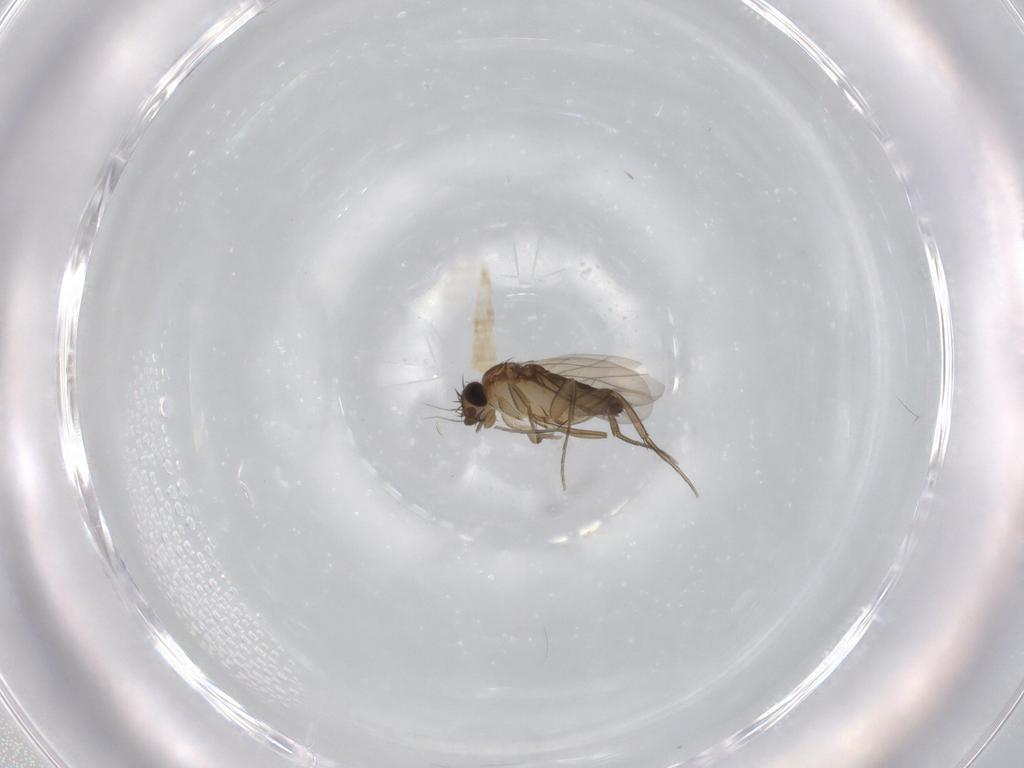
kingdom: Animalia
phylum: Arthropoda
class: Insecta
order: Diptera
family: Phoridae
